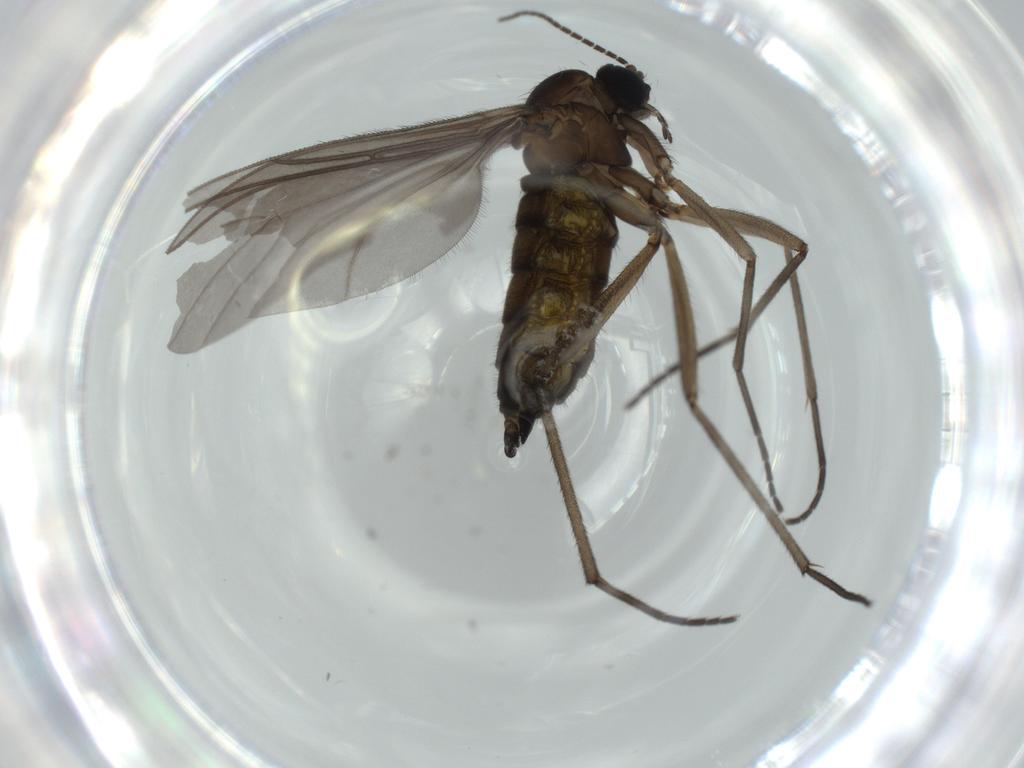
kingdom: Animalia
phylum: Arthropoda
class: Insecta
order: Diptera
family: Sciaridae
